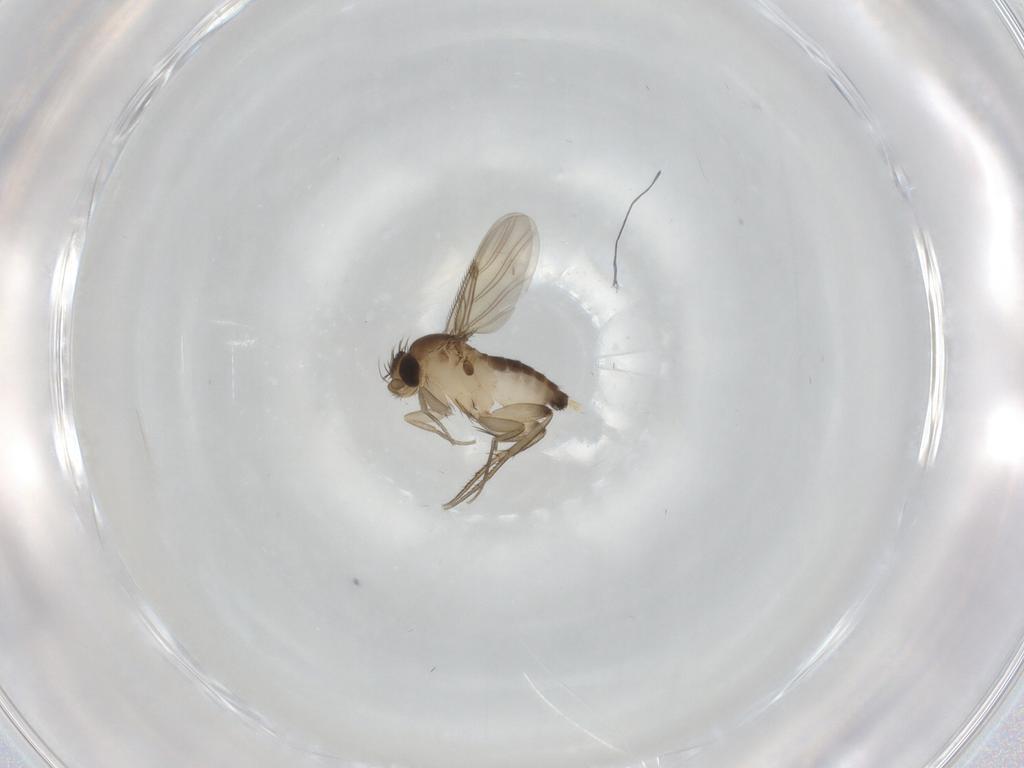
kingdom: Animalia
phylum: Arthropoda
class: Insecta
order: Diptera
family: Phoridae
